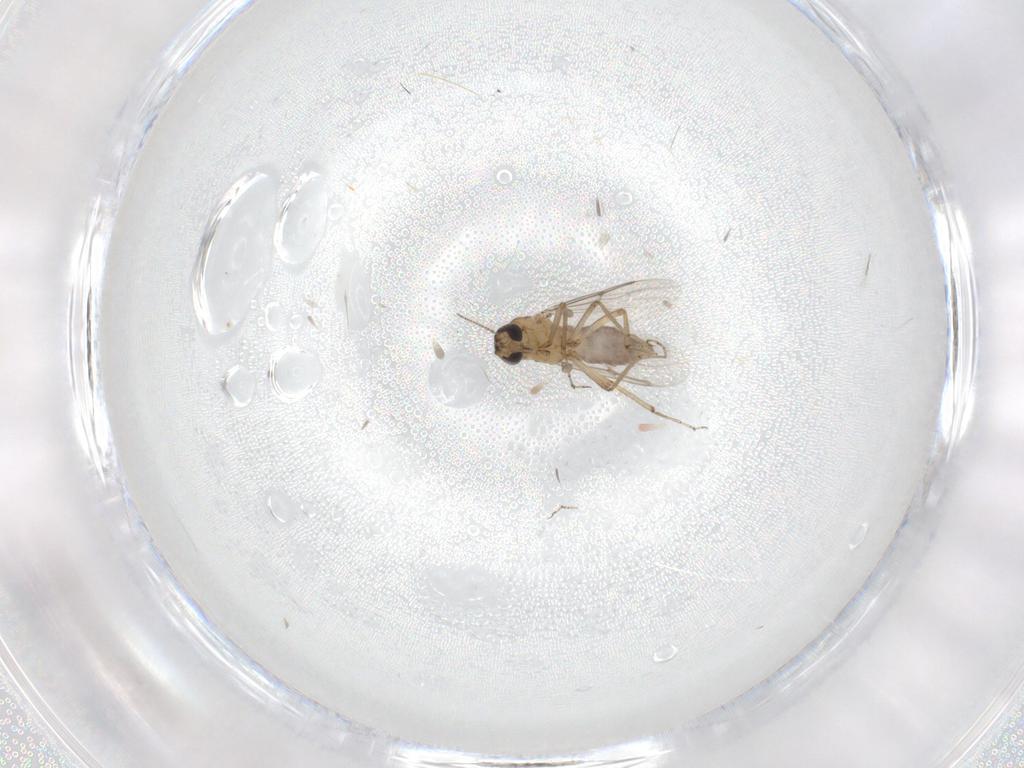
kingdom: Animalia
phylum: Arthropoda
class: Insecta
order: Diptera
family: Ceratopogonidae
